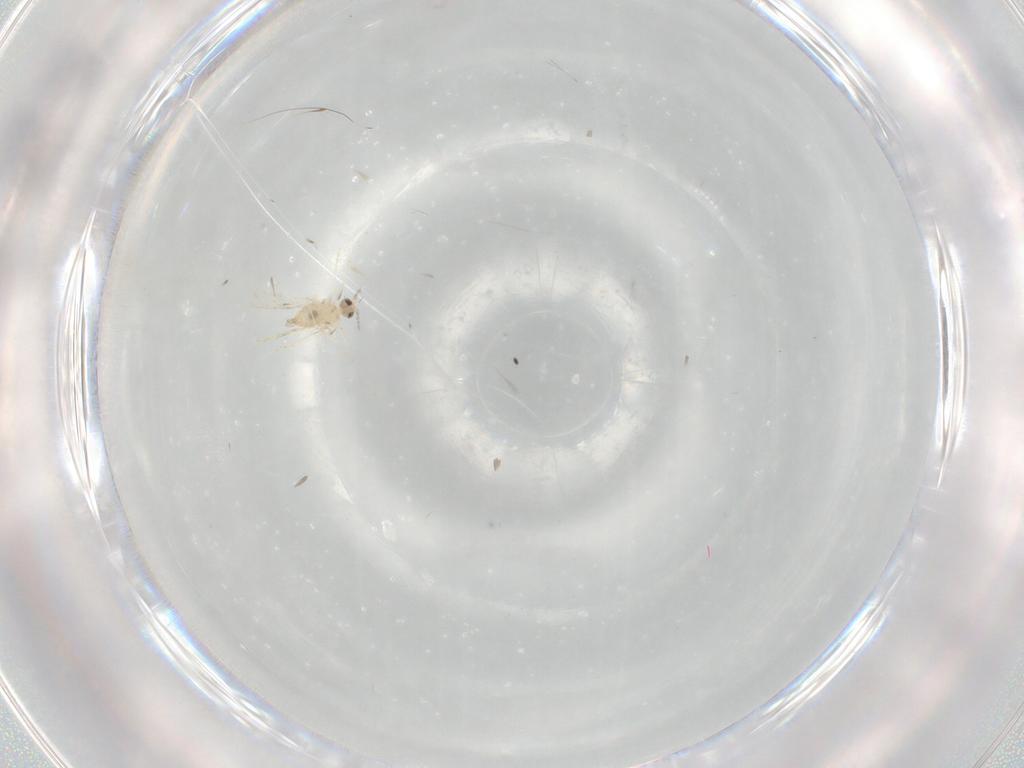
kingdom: Animalia
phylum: Arthropoda
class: Insecta
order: Diptera
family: Cecidomyiidae
